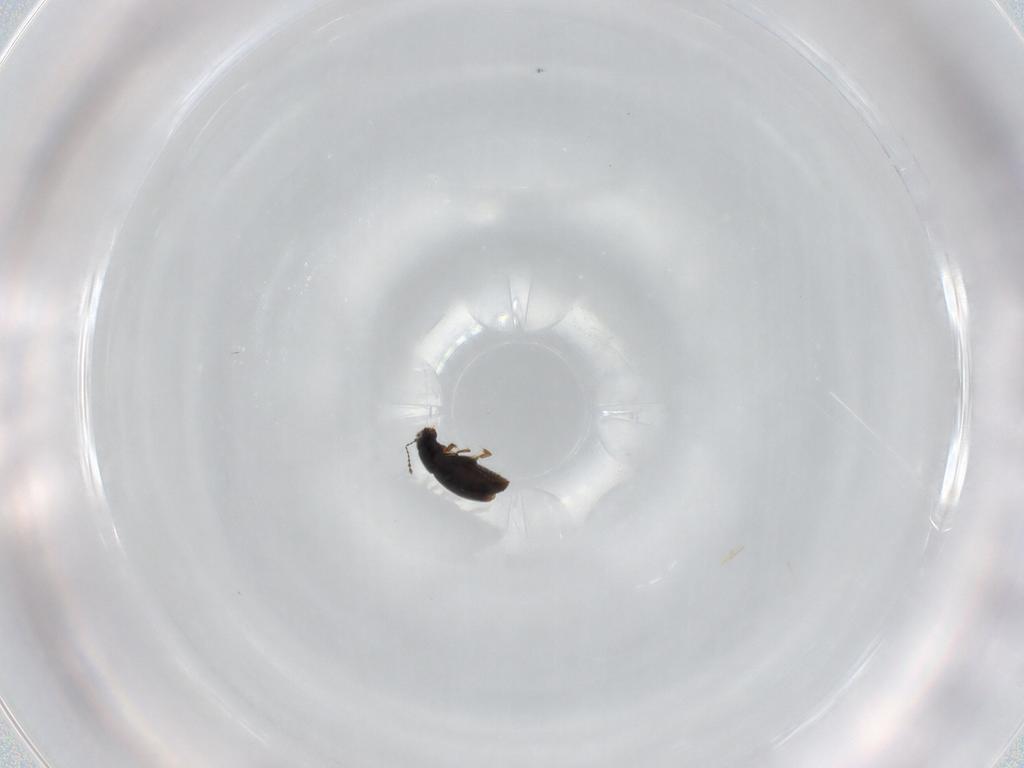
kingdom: Animalia
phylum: Arthropoda
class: Insecta
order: Coleoptera
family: Ptiliidae
